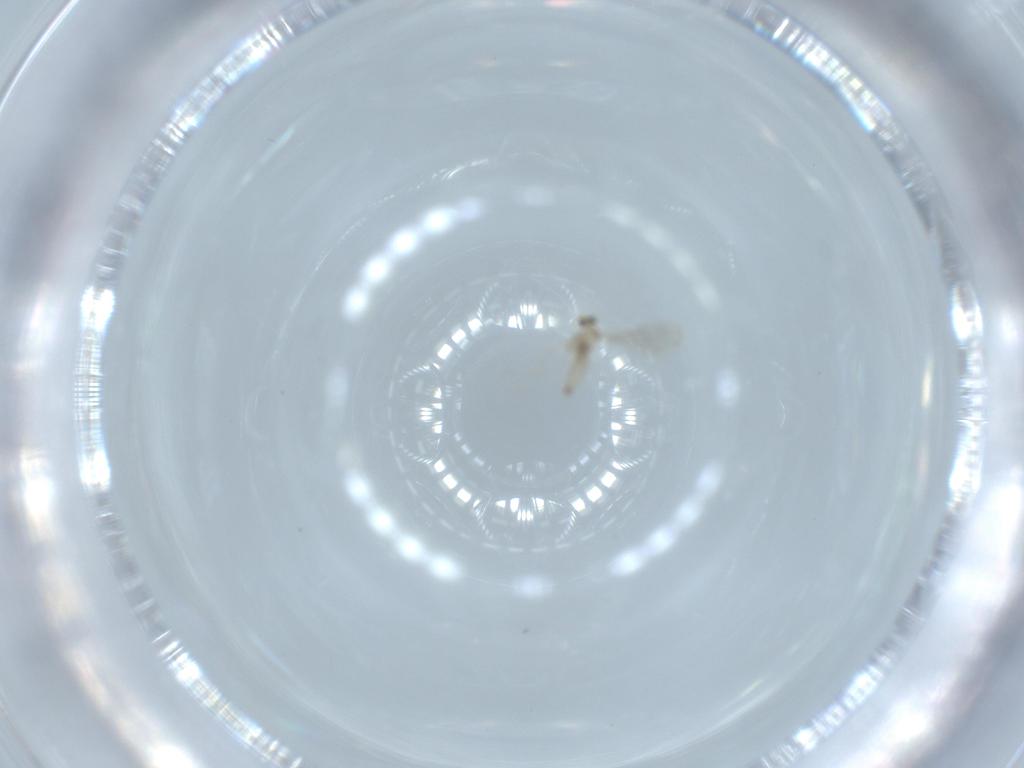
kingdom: Animalia
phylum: Arthropoda
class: Insecta
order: Diptera
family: Cecidomyiidae
